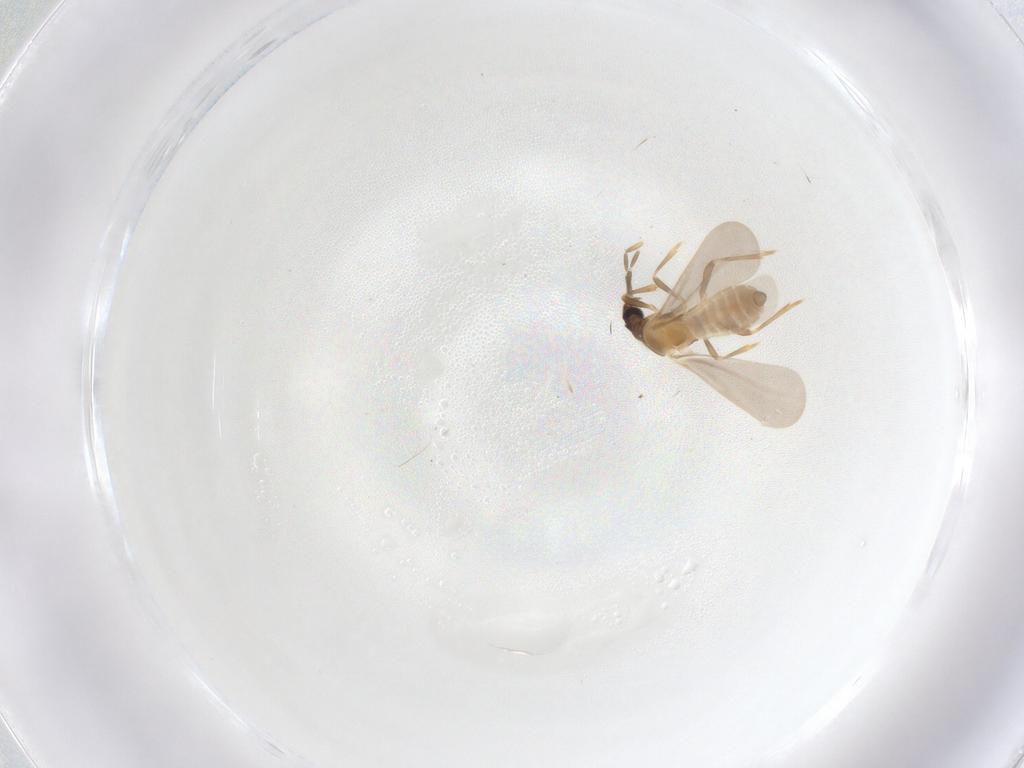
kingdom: Animalia
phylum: Arthropoda
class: Insecta
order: Hemiptera
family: Enicocephalidae
